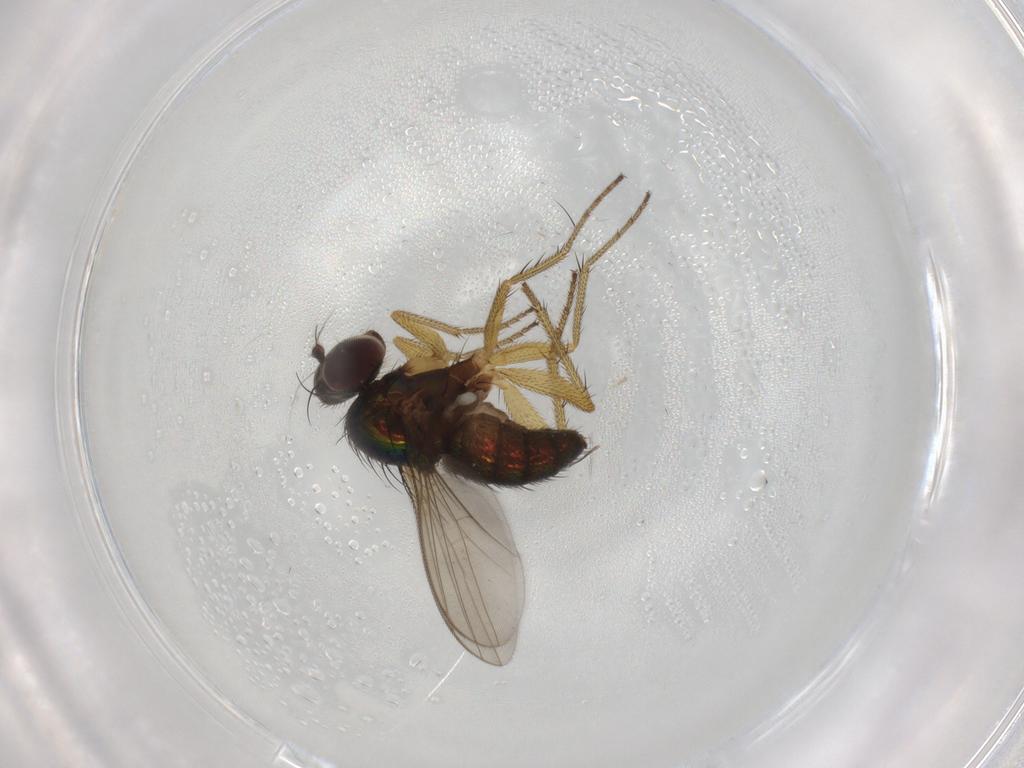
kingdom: Animalia
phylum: Arthropoda
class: Insecta
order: Diptera
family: Dolichopodidae
